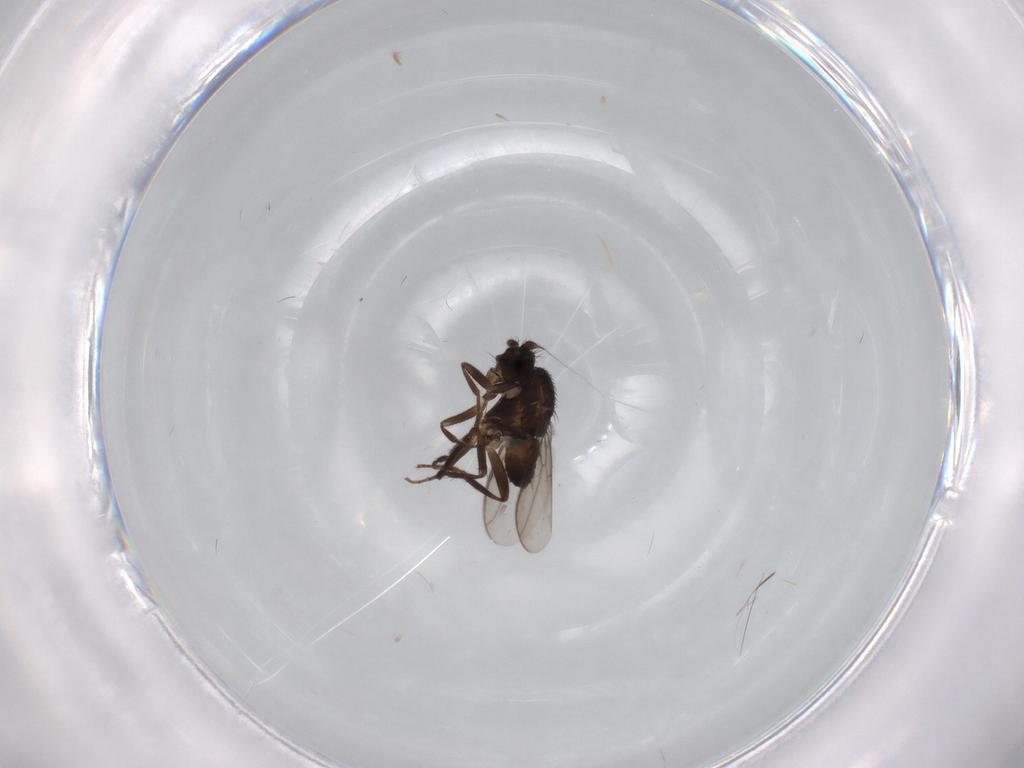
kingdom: Animalia
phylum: Arthropoda
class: Insecta
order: Diptera
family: Sphaeroceridae
